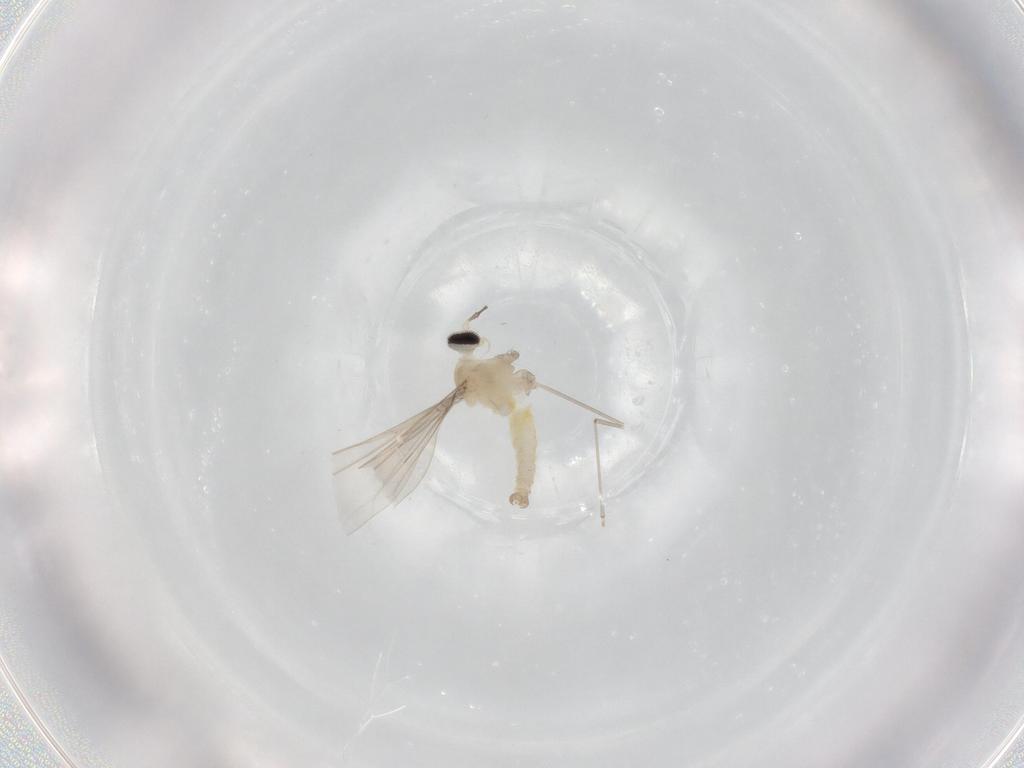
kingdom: Animalia
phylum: Arthropoda
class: Insecta
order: Diptera
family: Cecidomyiidae
